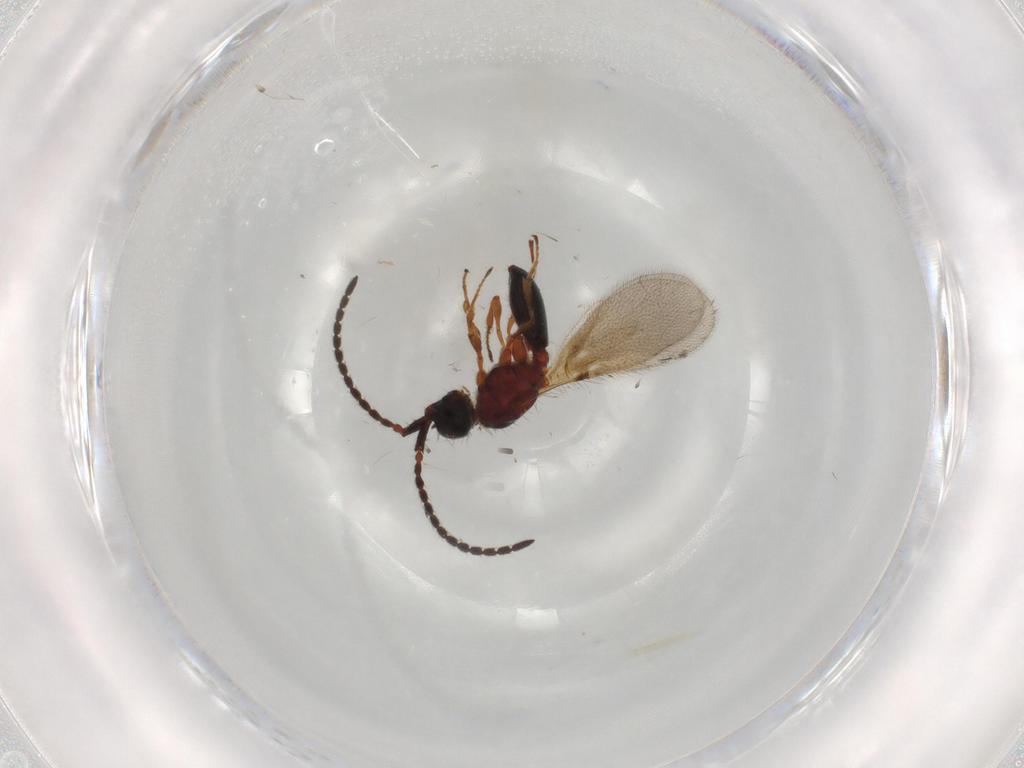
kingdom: Animalia
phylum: Arthropoda
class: Insecta
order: Hymenoptera
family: Diapriidae
